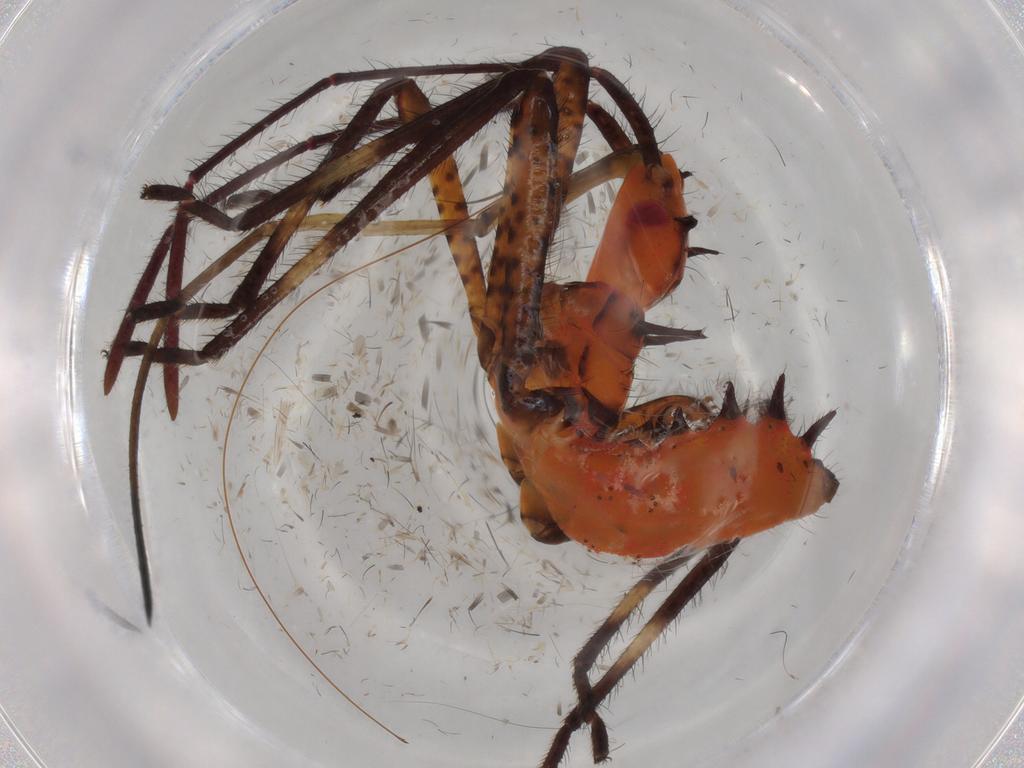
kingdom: Animalia
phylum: Arthropoda
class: Insecta
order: Hemiptera
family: Coreidae
